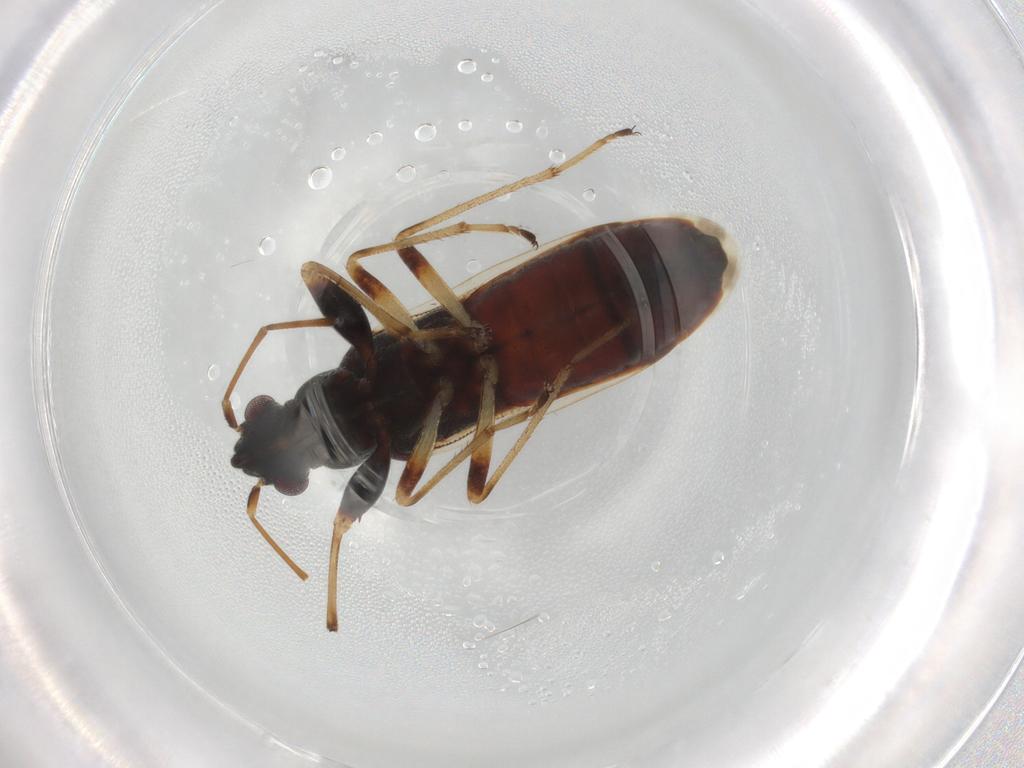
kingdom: Animalia
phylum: Arthropoda
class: Insecta
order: Hemiptera
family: Rhyparochromidae
